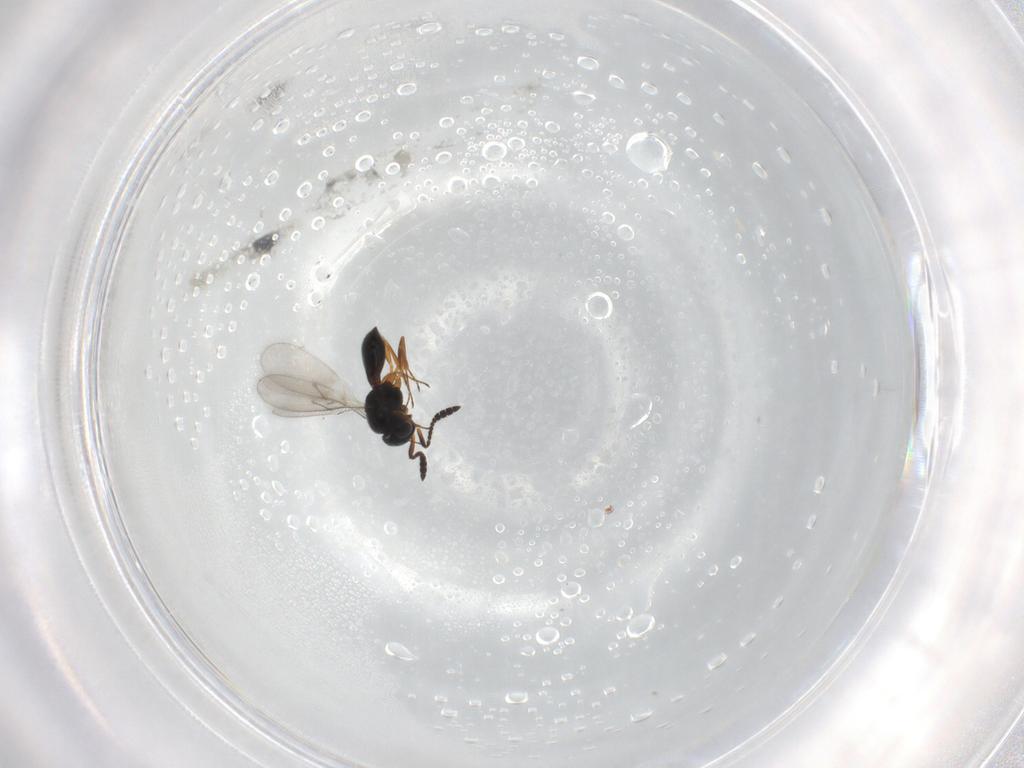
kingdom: Animalia
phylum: Arthropoda
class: Insecta
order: Hymenoptera
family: Scelionidae
